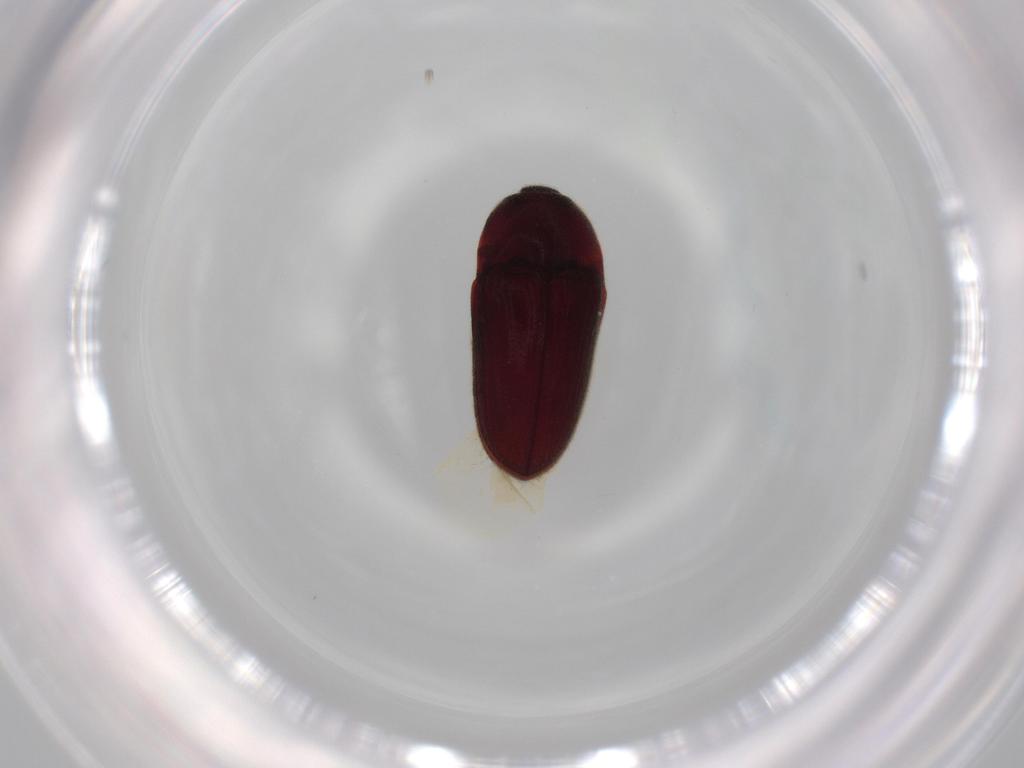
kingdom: Animalia
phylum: Arthropoda
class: Insecta
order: Coleoptera
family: Throscidae
